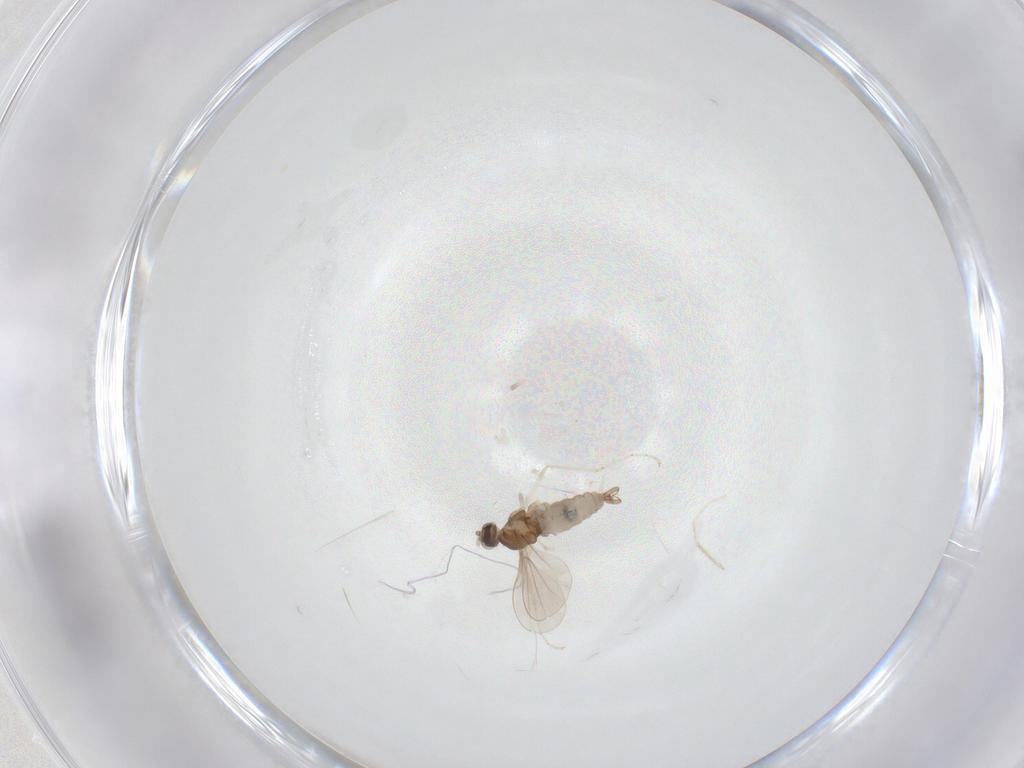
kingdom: Animalia
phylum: Arthropoda
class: Insecta
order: Diptera
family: Cecidomyiidae
